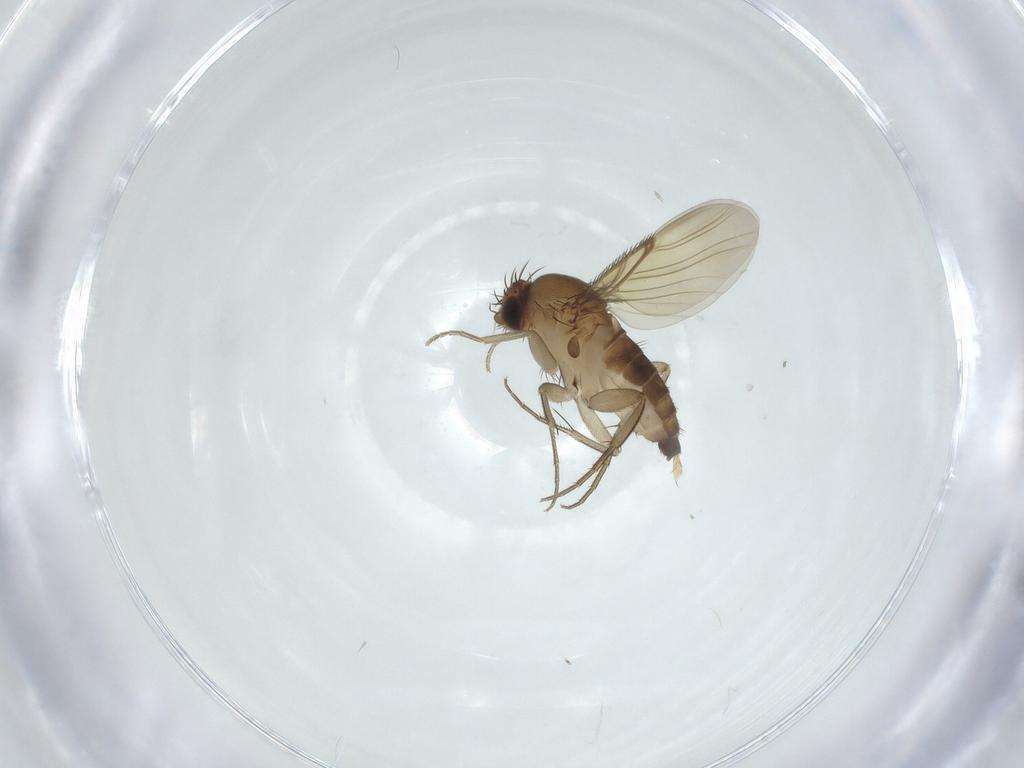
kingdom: Animalia
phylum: Arthropoda
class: Insecta
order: Diptera
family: Phoridae
